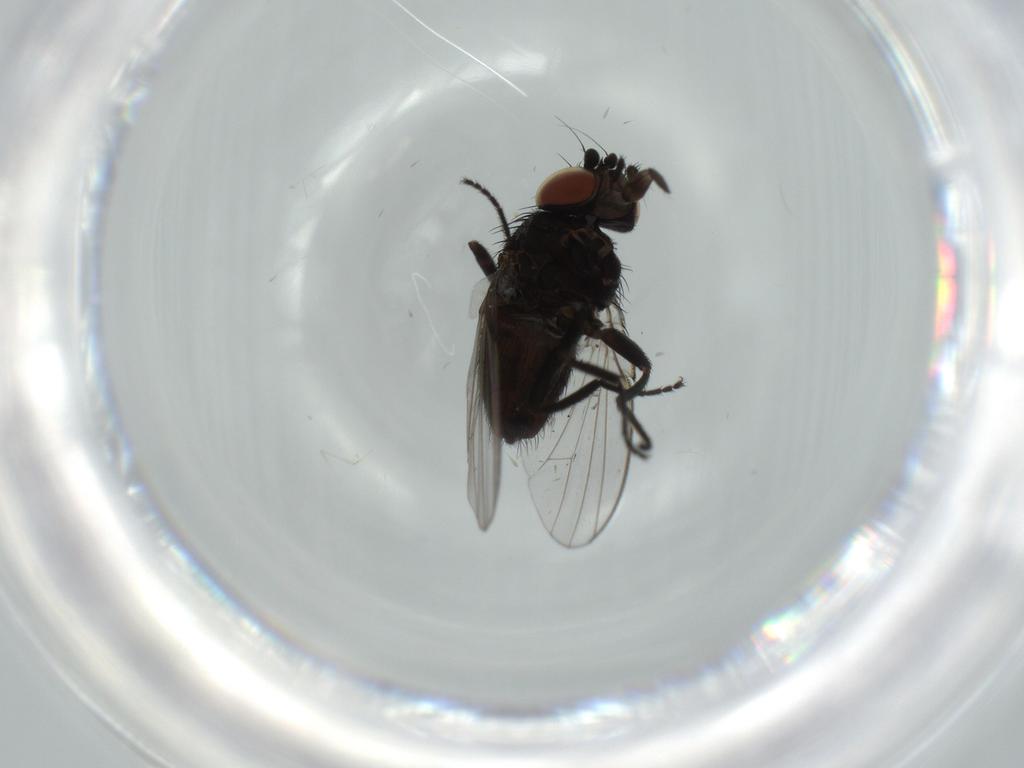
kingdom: Animalia
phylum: Arthropoda
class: Insecta
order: Diptera
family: Milichiidae
